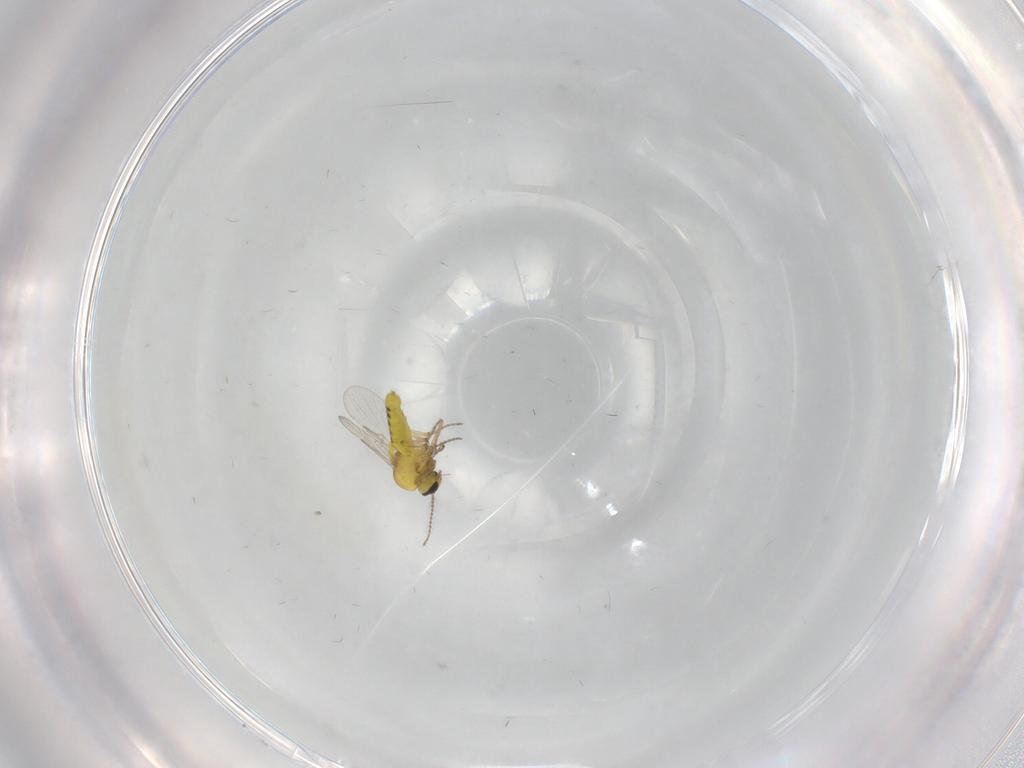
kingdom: Animalia
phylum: Arthropoda
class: Insecta
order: Diptera
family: Ceratopogonidae
